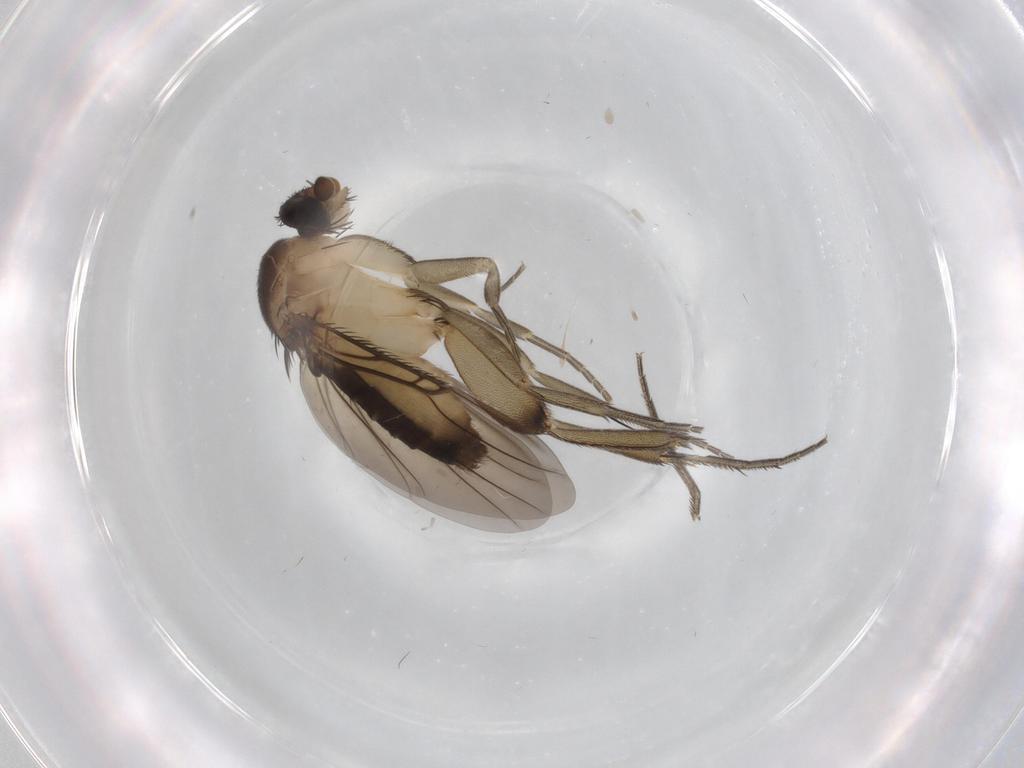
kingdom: Animalia
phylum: Arthropoda
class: Insecta
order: Diptera
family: Phoridae
